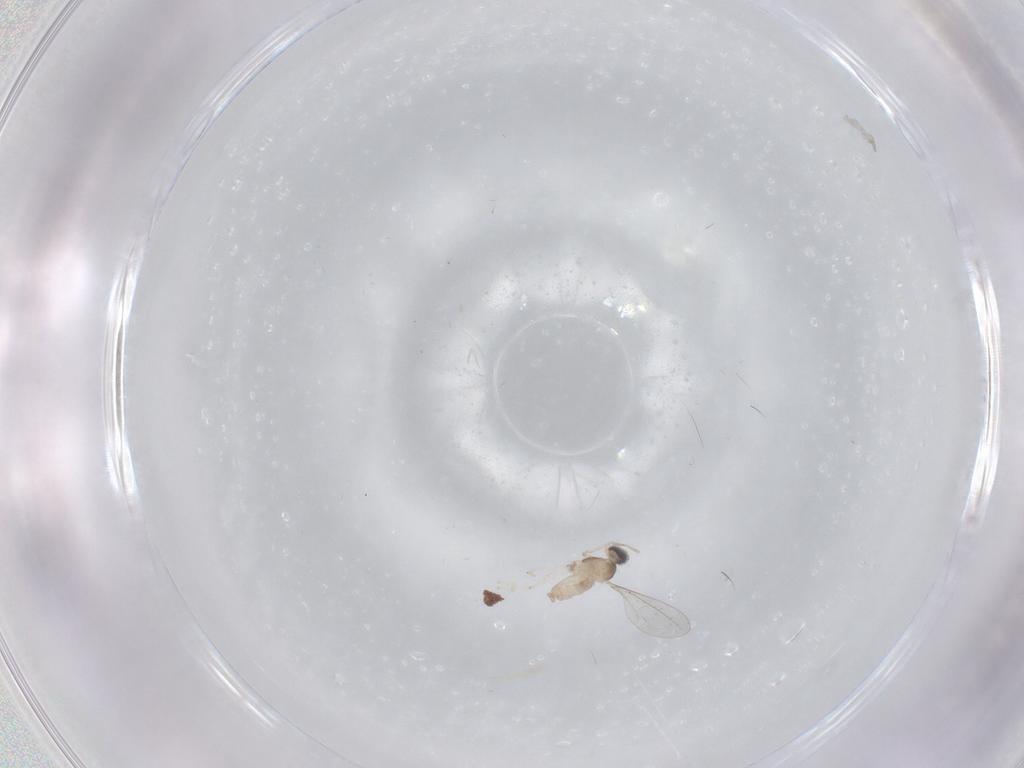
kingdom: Animalia
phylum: Arthropoda
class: Insecta
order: Diptera
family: Cecidomyiidae
